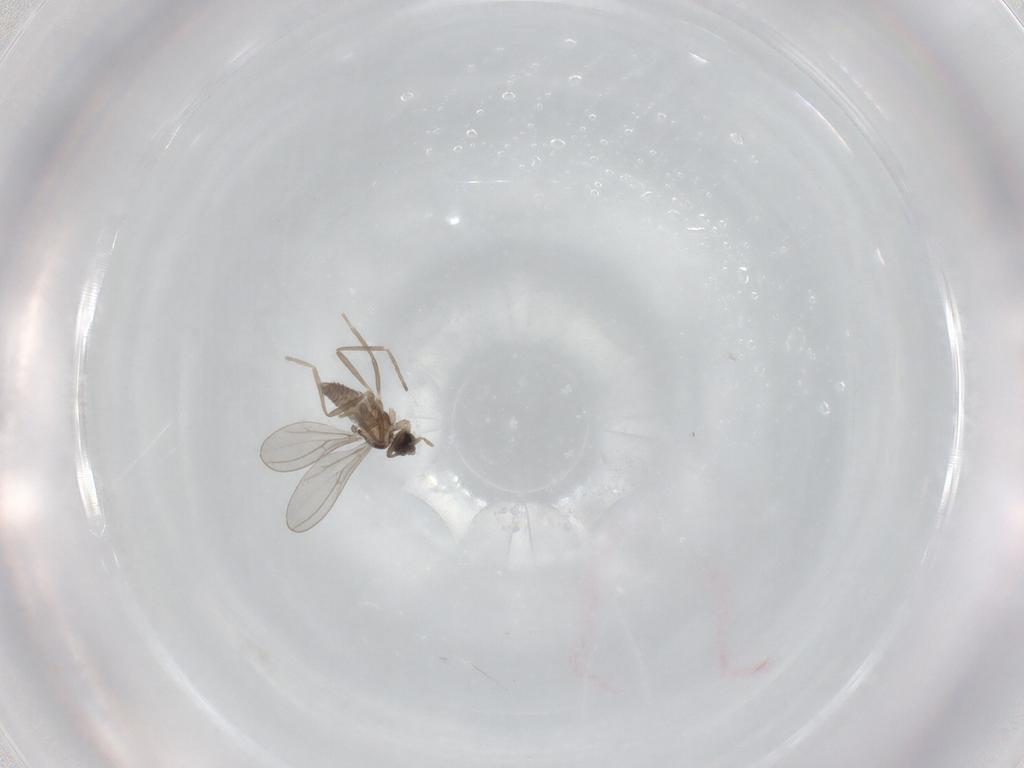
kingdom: Animalia
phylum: Arthropoda
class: Insecta
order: Diptera
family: Cecidomyiidae
